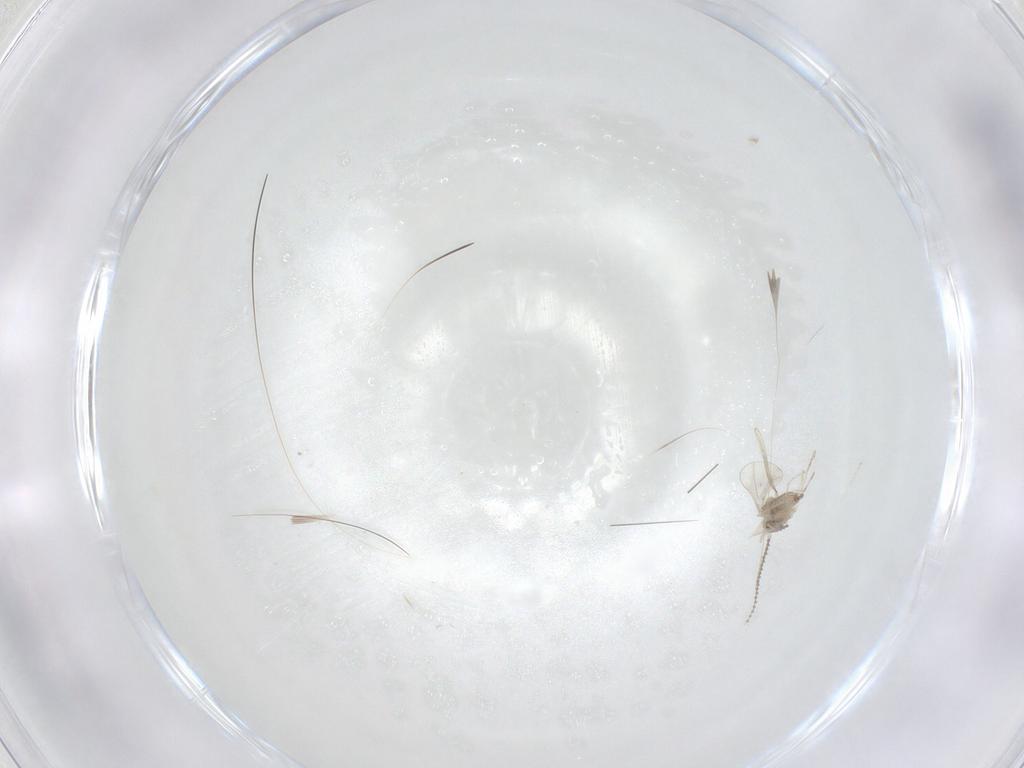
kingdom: Animalia
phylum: Arthropoda
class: Insecta
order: Diptera
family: Cecidomyiidae
